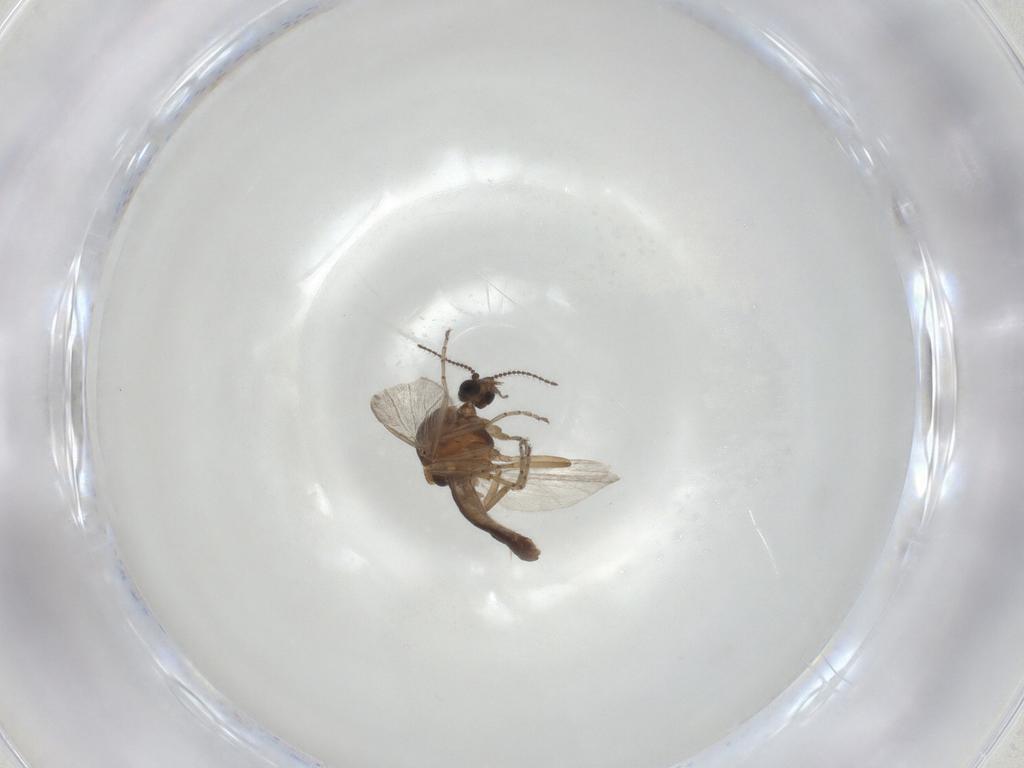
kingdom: Animalia
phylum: Arthropoda
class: Insecta
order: Diptera
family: Ceratopogonidae
